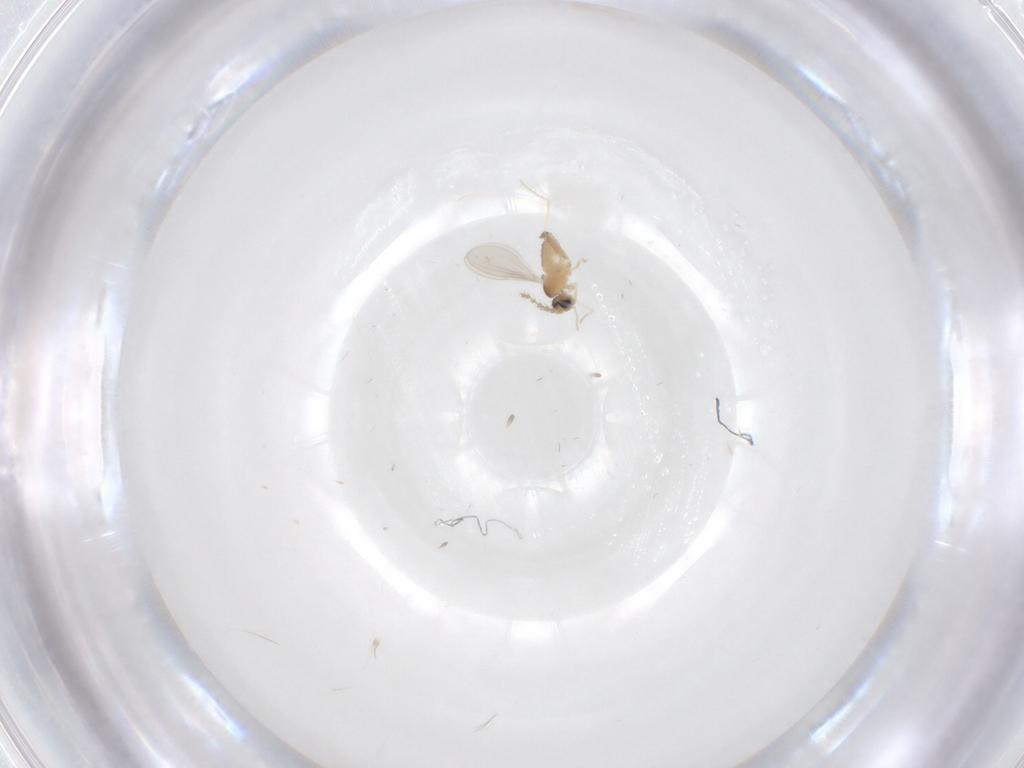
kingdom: Animalia
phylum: Arthropoda
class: Insecta
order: Diptera
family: Cecidomyiidae
